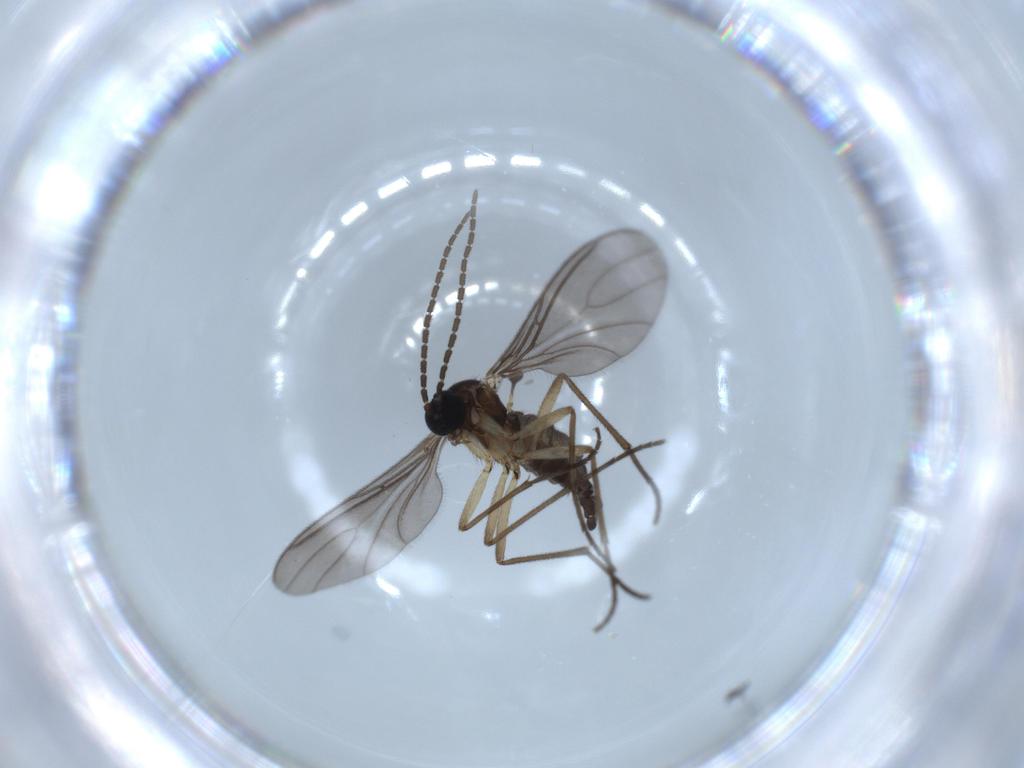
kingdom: Animalia
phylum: Arthropoda
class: Insecta
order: Diptera
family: Sciaridae
